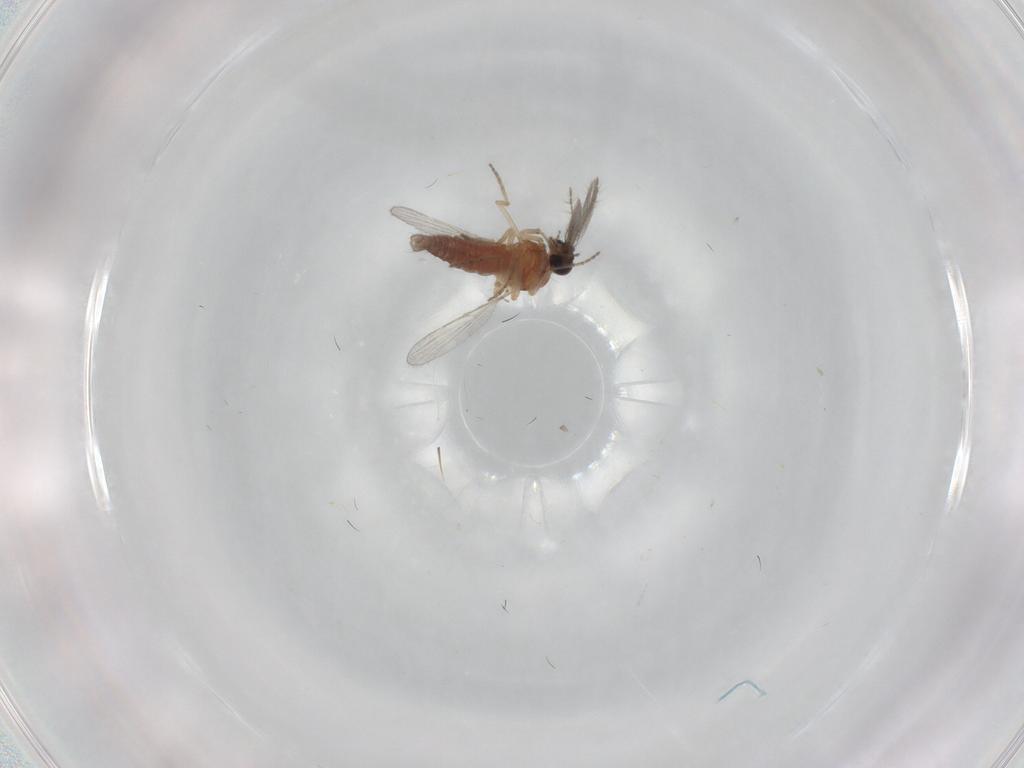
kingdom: Animalia
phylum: Arthropoda
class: Insecta
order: Diptera
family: Ceratopogonidae
